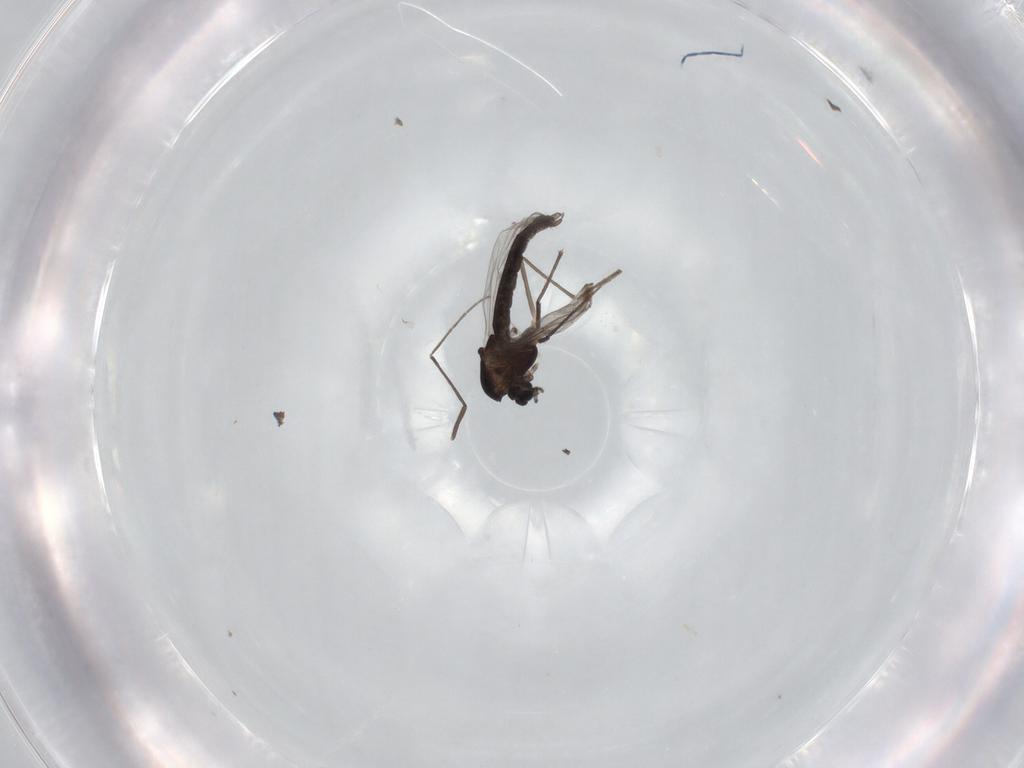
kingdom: Animalia
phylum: Arthropoda
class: Insecta
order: Diptera
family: Chironomidae
